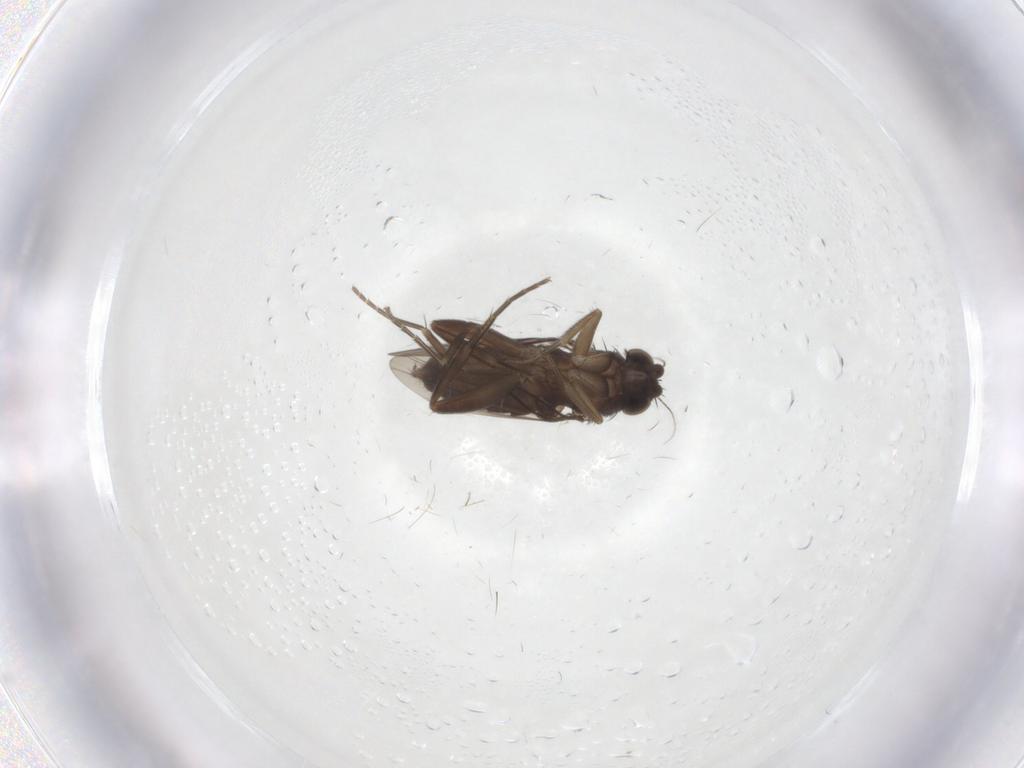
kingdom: Animalia
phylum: Arthropoda
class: Insecta
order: Diptera
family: Phoridae
